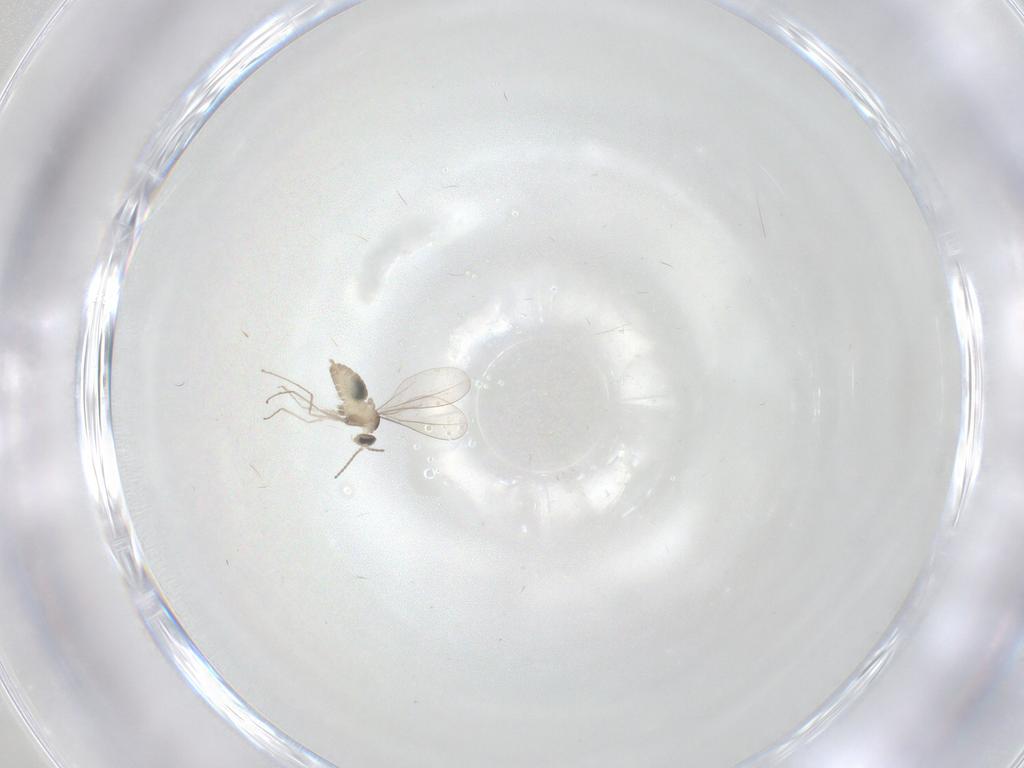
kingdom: Animalia
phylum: Arthropoda
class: Insecta
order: Diptera
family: Cecidomyiidae
